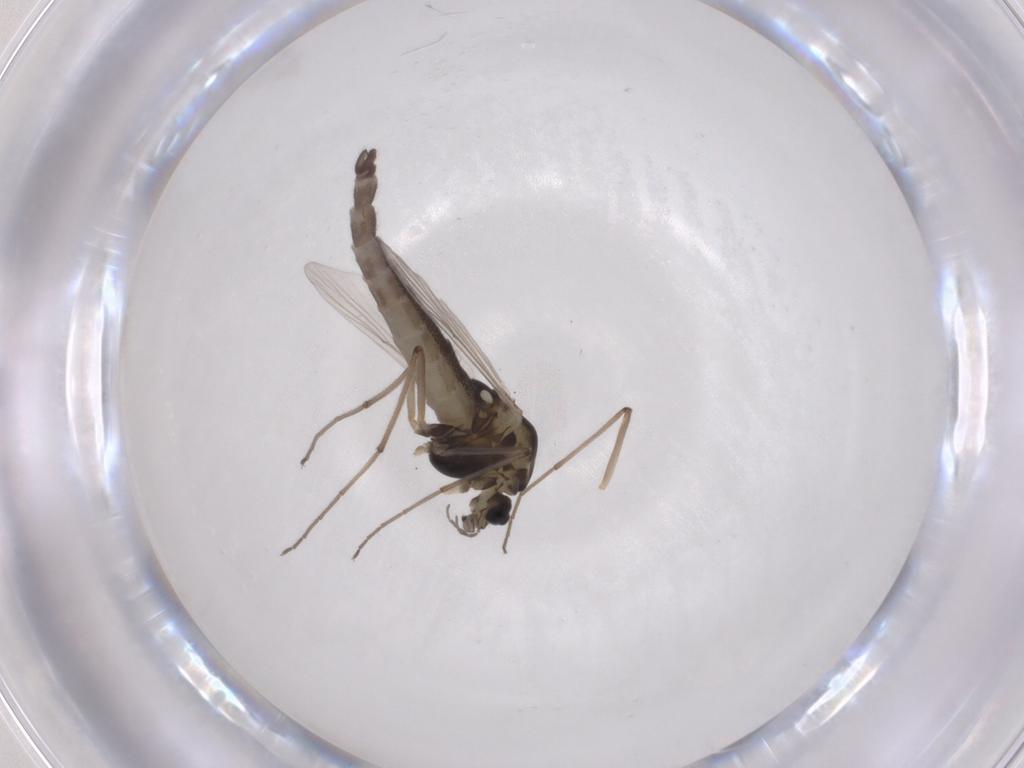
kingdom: Animalia
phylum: Arthropoda
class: Insecta
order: Diptera
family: Chironomidae
